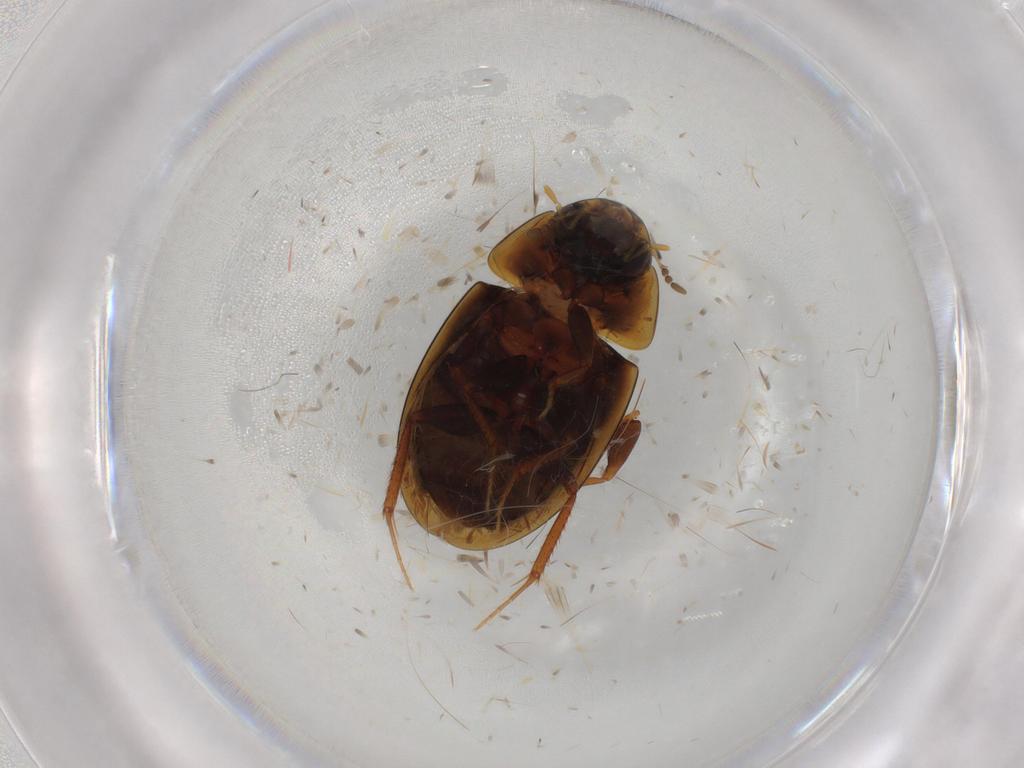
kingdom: Animalia
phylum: Arthropoda
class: Insecta
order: Coleoptera
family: Hydrophilidae
